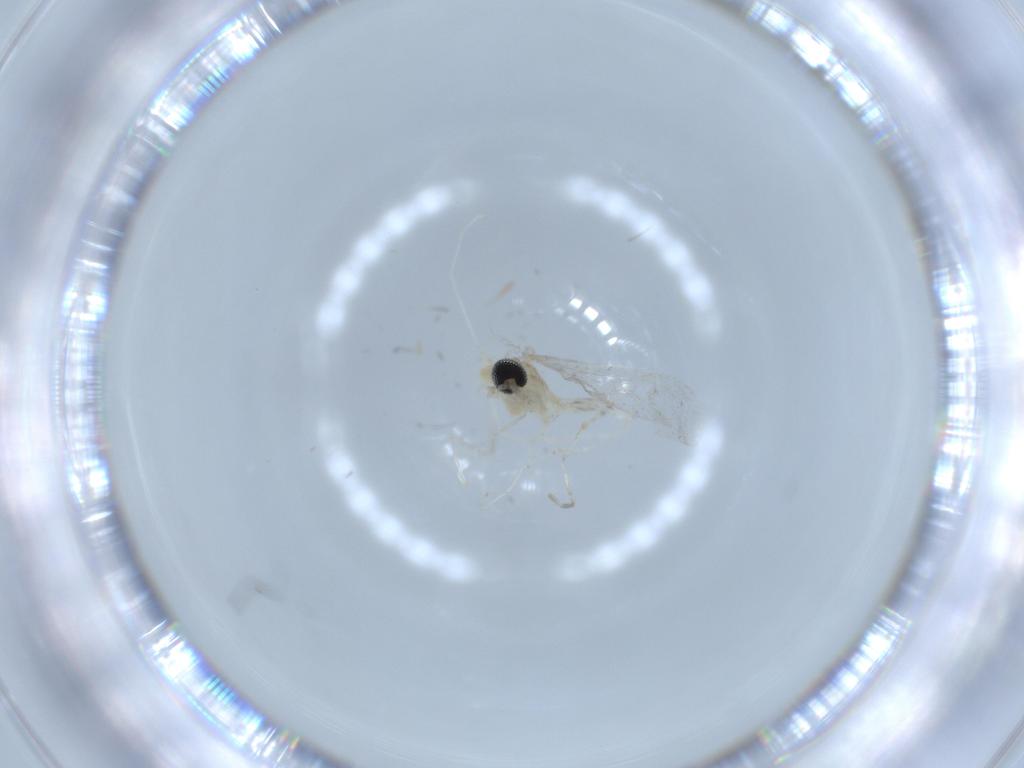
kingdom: Animalia
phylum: Arthropoda
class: Insecta
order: Diptera
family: Cecidomyiidae
